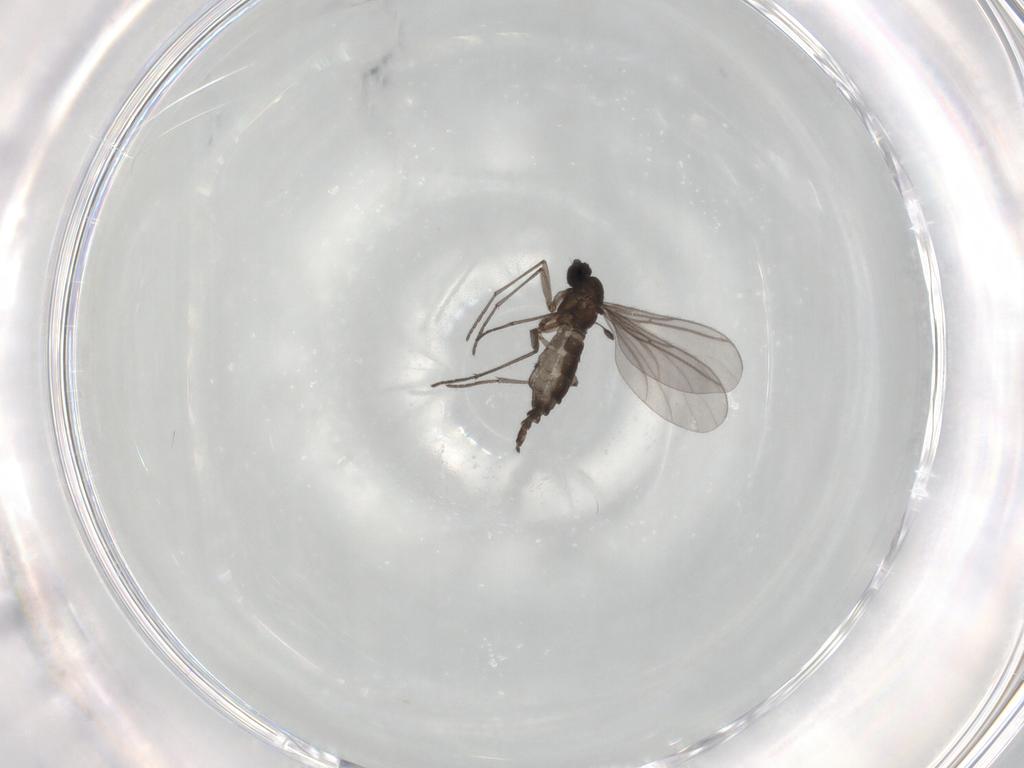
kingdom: Animalia
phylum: Arthropoda
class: Insecta
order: Diptera
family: Sciaridae
